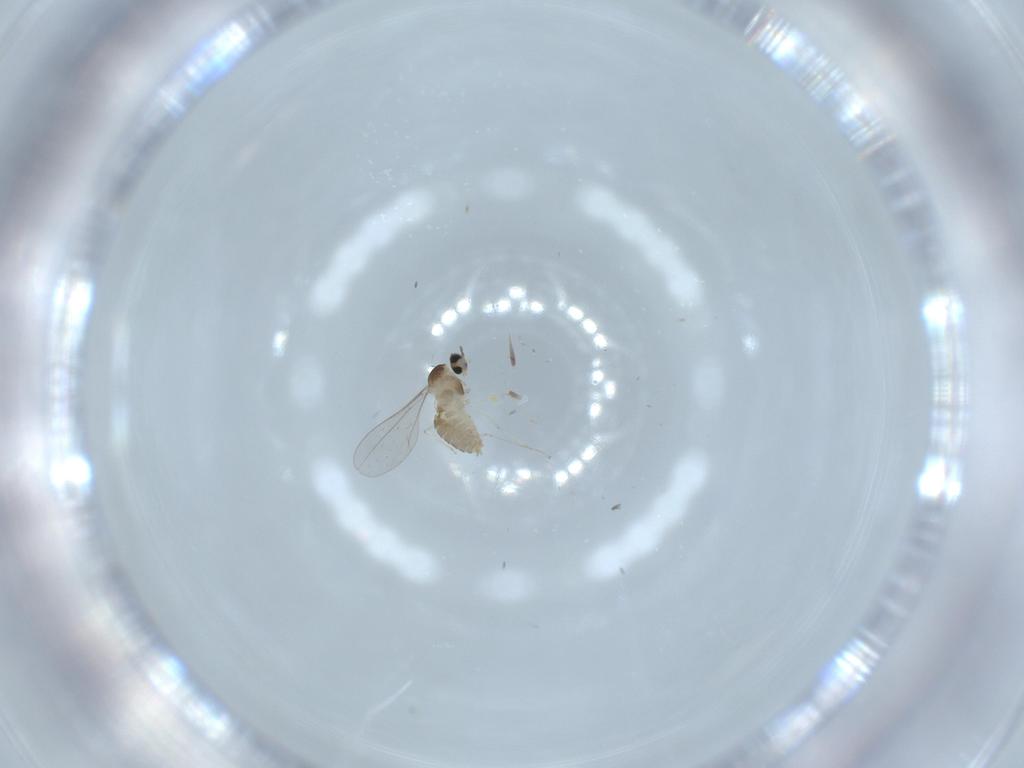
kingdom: Animalia
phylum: Arthropoda
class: Insecta
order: Diptera
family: Cecidomyiidae
